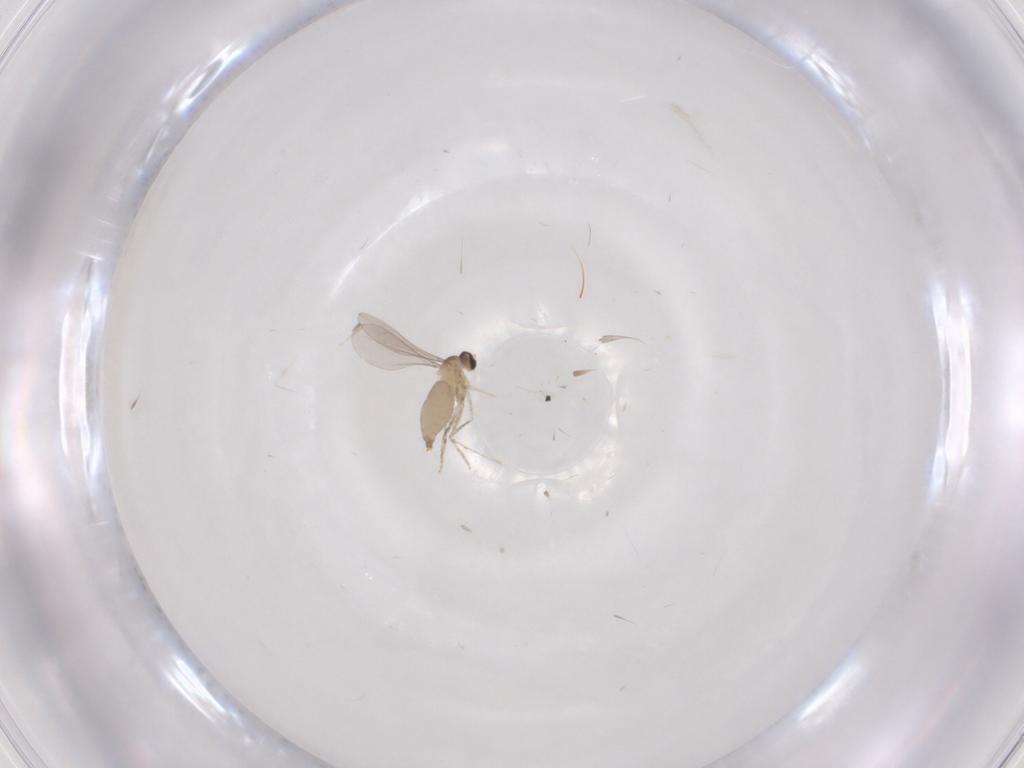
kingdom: Animalia
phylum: Arthropoda
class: Insecta
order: Diptera
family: Cecidomyiidae
